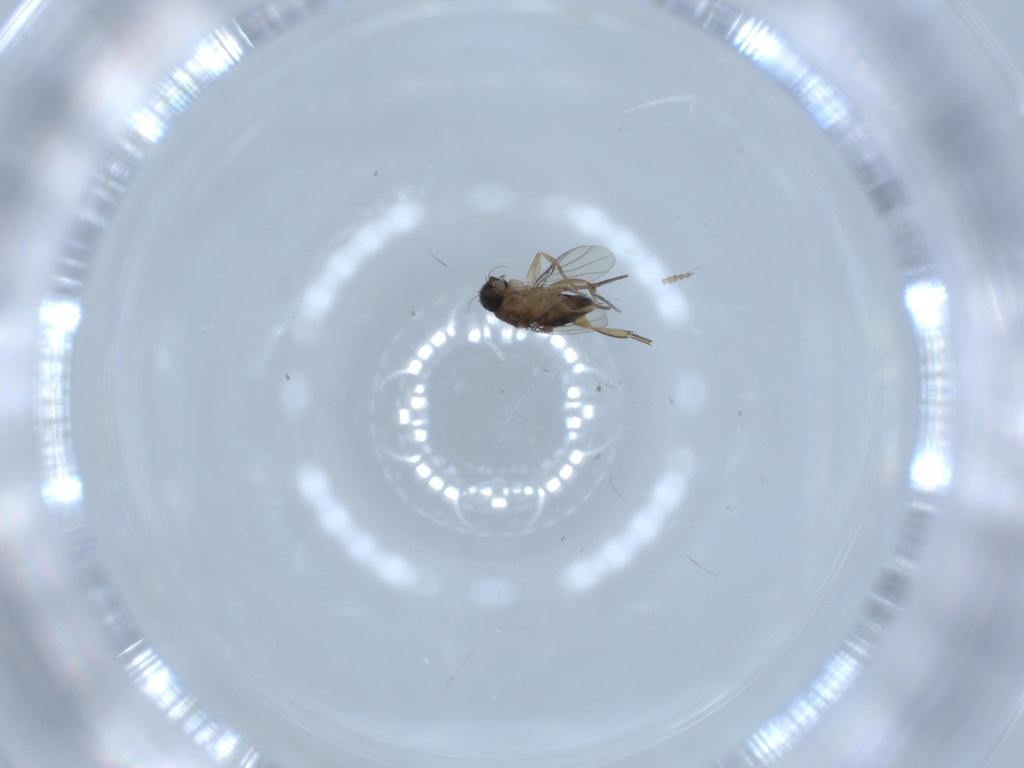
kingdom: Animalia
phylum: Arthropoda
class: Insecta
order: Diptera
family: Phoridae
